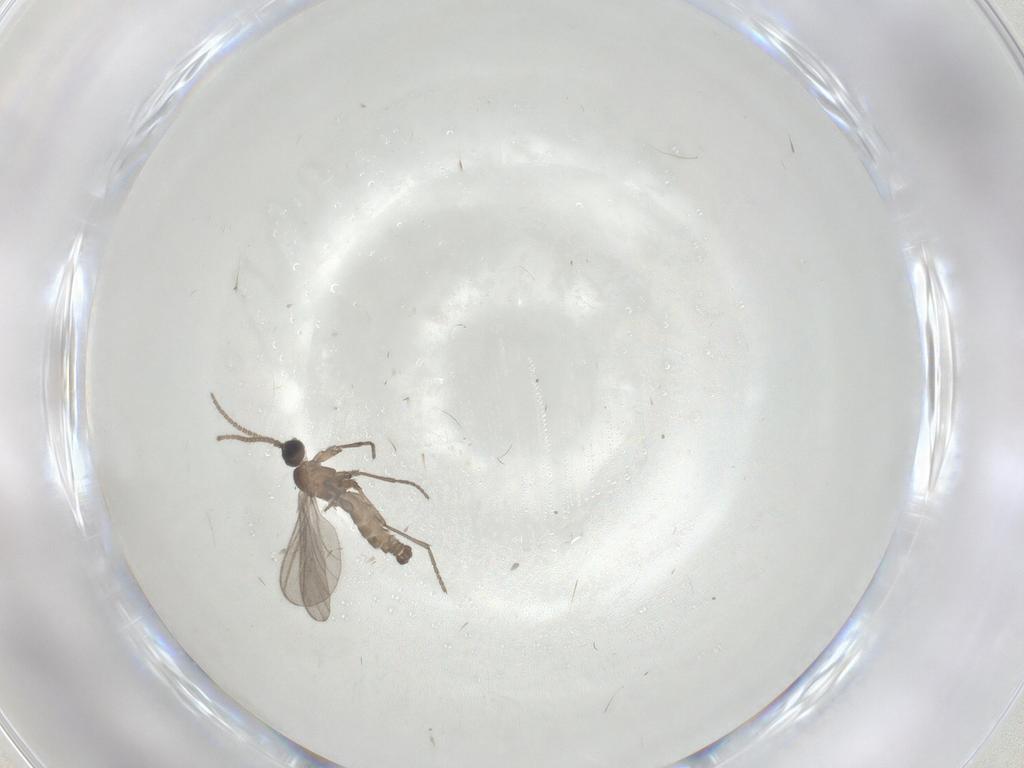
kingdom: Animalia
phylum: Arthropoda
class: Insecta
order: Diptera
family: Sciaridae
